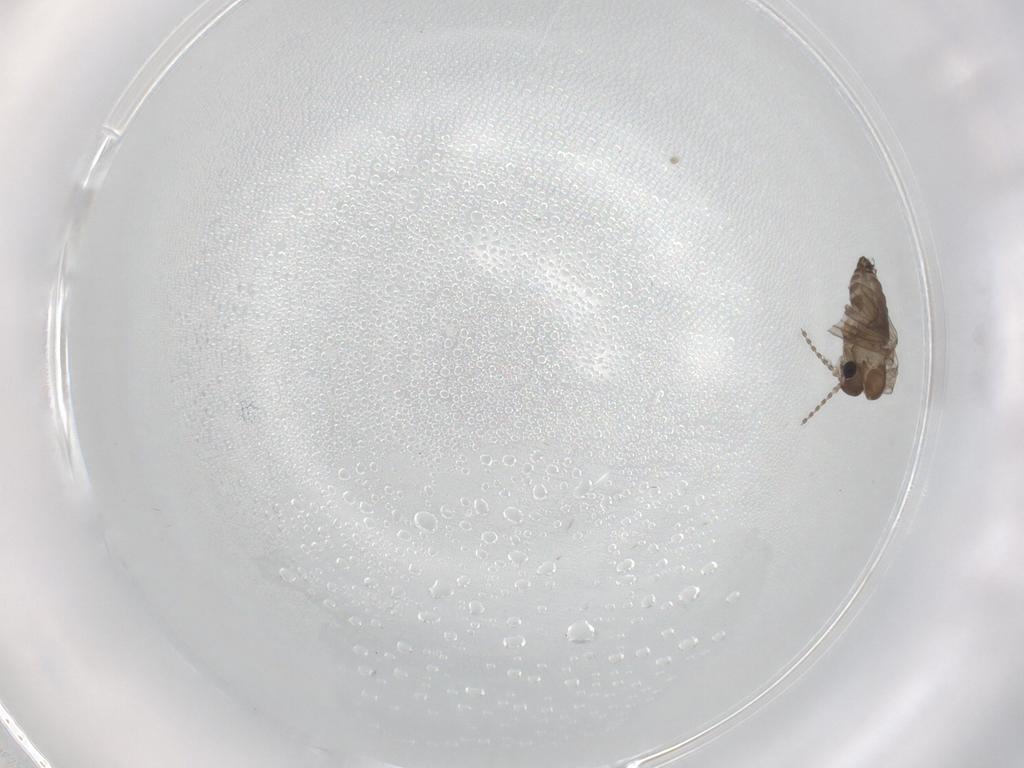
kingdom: Animalia
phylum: Arthropoda
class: Insecta
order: Diptera
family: Psychodidae
